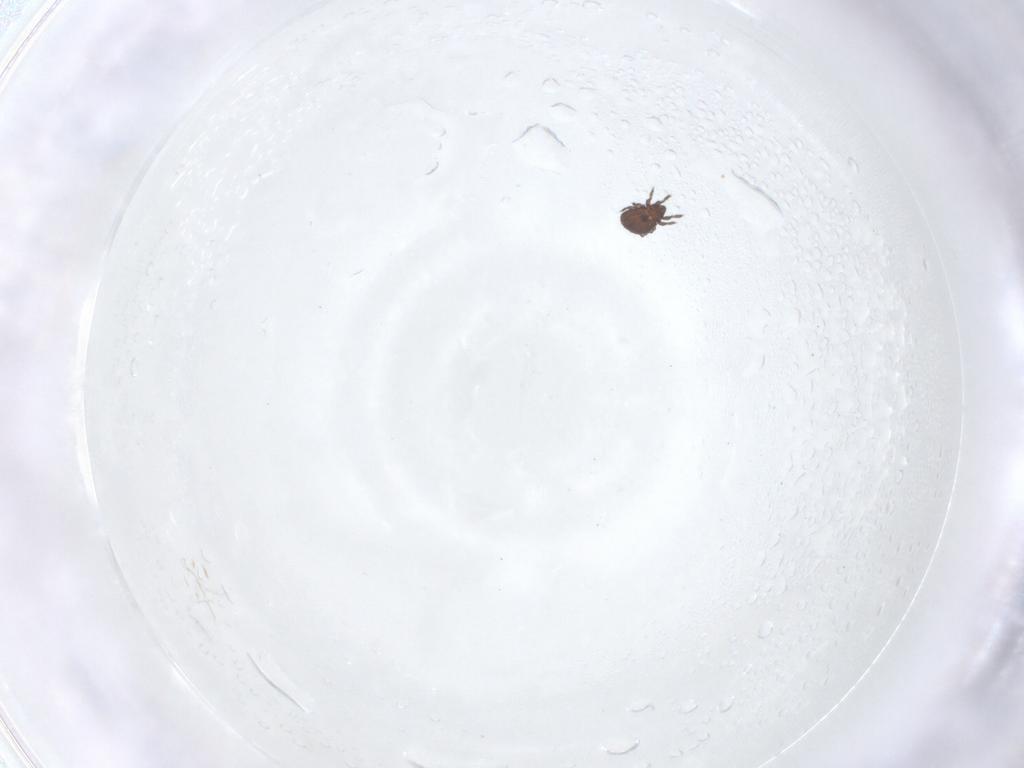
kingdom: Animalia
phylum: Arthropoda
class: Arachnida
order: Sarcoptiformes
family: Cymbaeremaeidae
